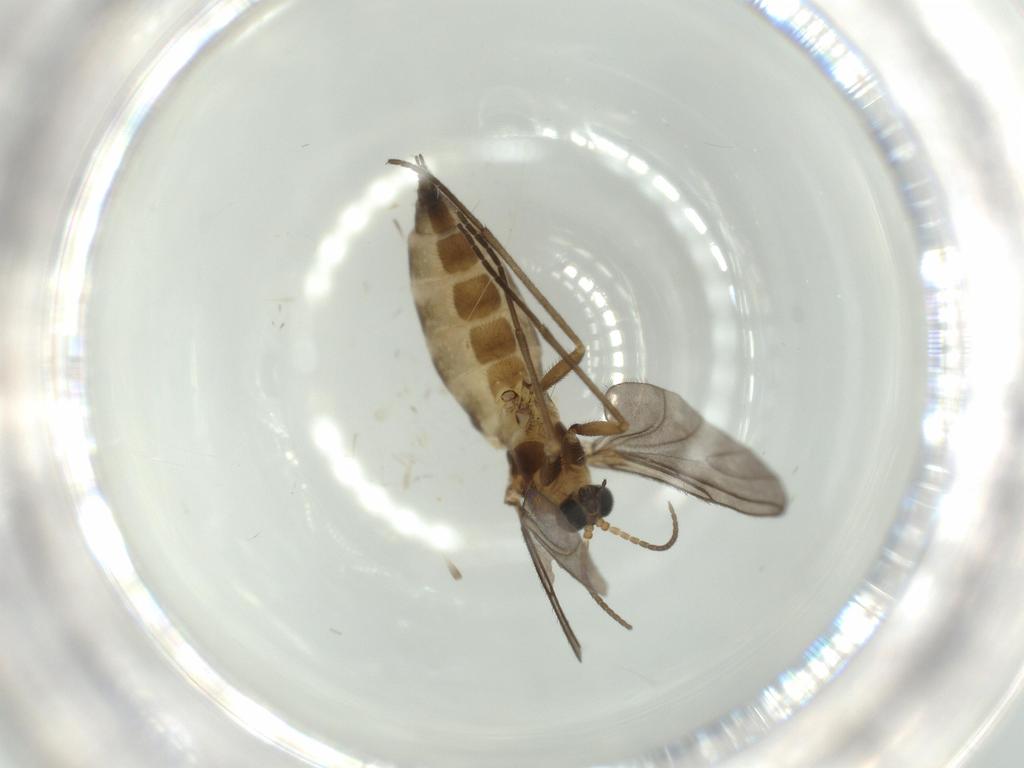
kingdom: Animalia
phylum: Arthropoda
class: Insecta
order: Diptera
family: Sciaridae
